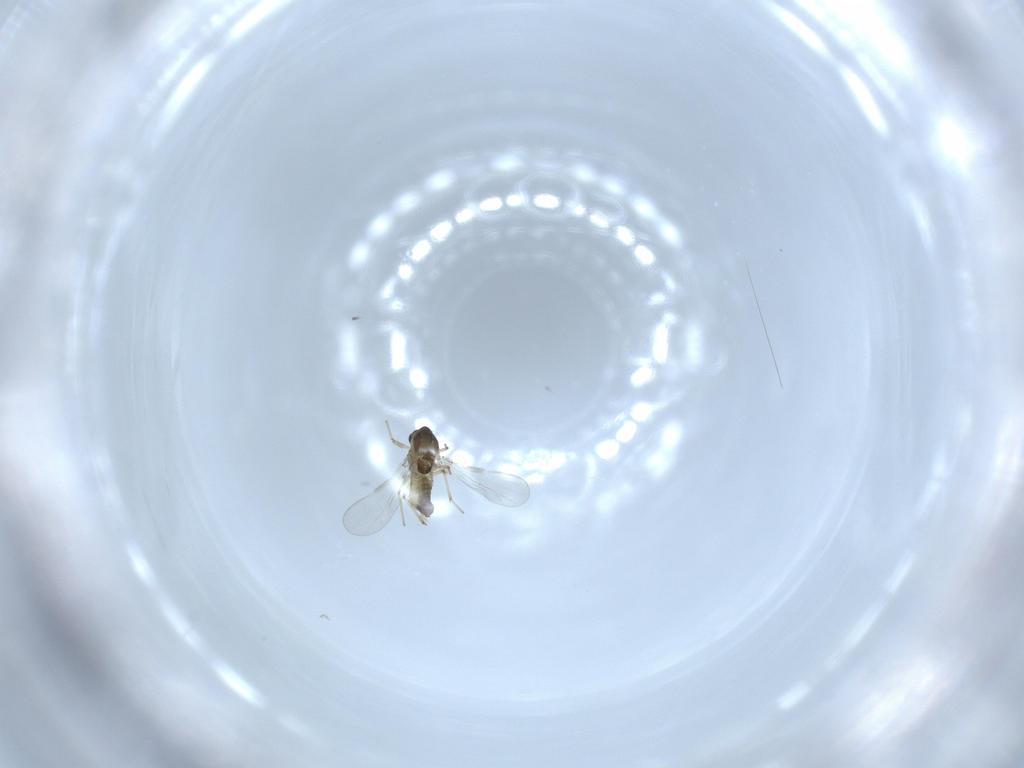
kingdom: Animalia
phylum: Arthropoda
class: Insecta
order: Diptera
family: Chironomidae
